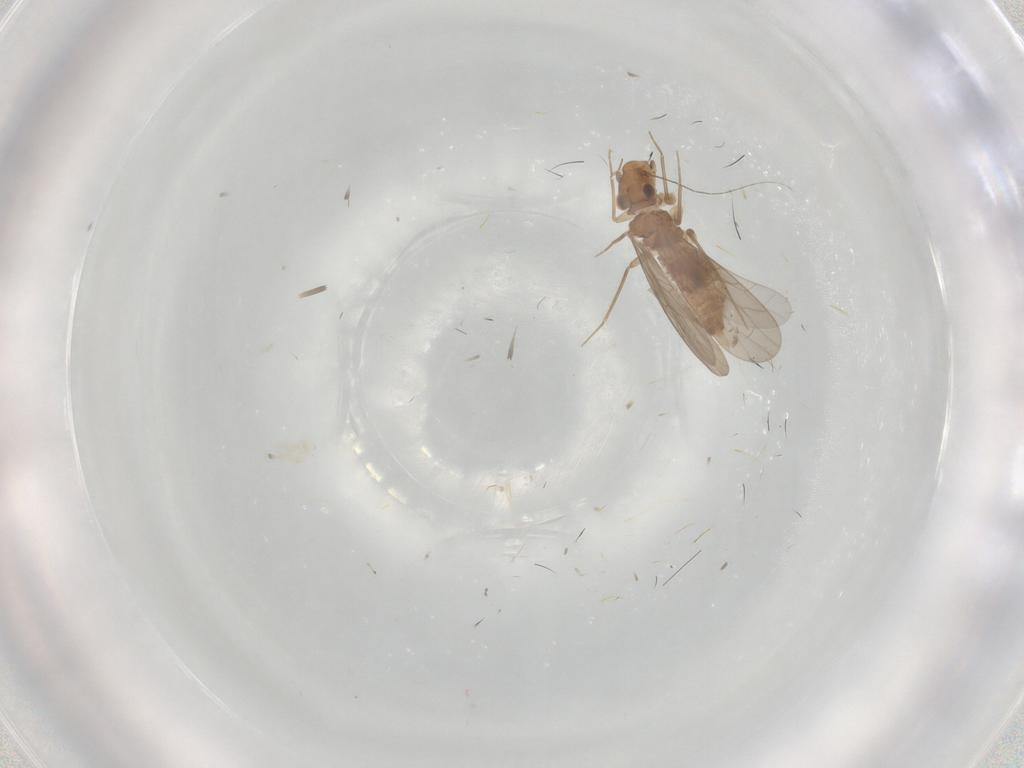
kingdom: Animalia
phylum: Arthropoda
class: Insecta
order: Psocodea
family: Lepidopsocidae
